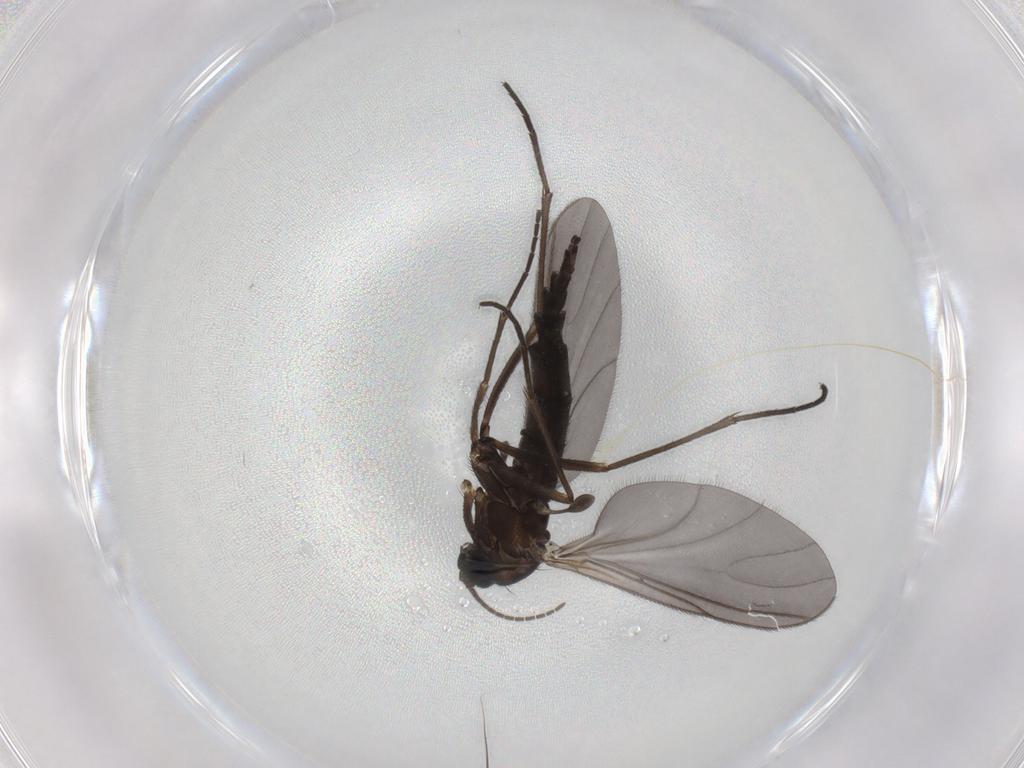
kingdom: Animalia
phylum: Arthropoda
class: Insecta
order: Diptera
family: Sciaridae
